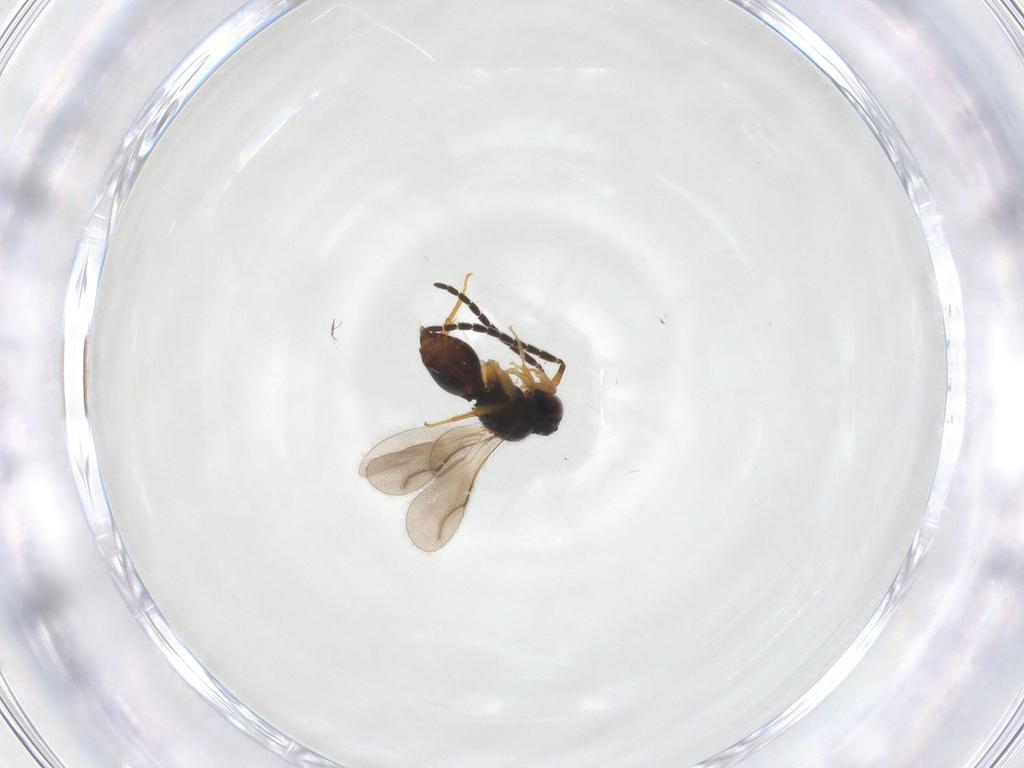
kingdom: Animalia
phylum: Arthropoda
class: Insecta
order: Hymenoptera
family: Ceraphronidae
